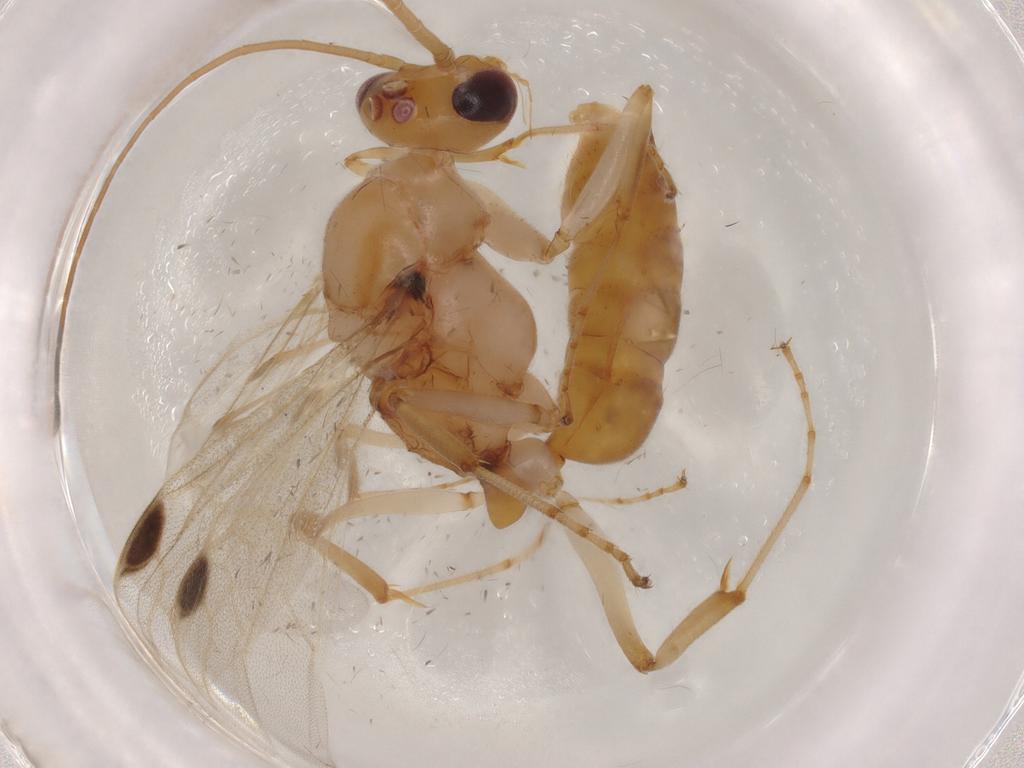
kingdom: Animalia
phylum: Arthropoda
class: Insecta
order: Hymenoptera
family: Formicidae
